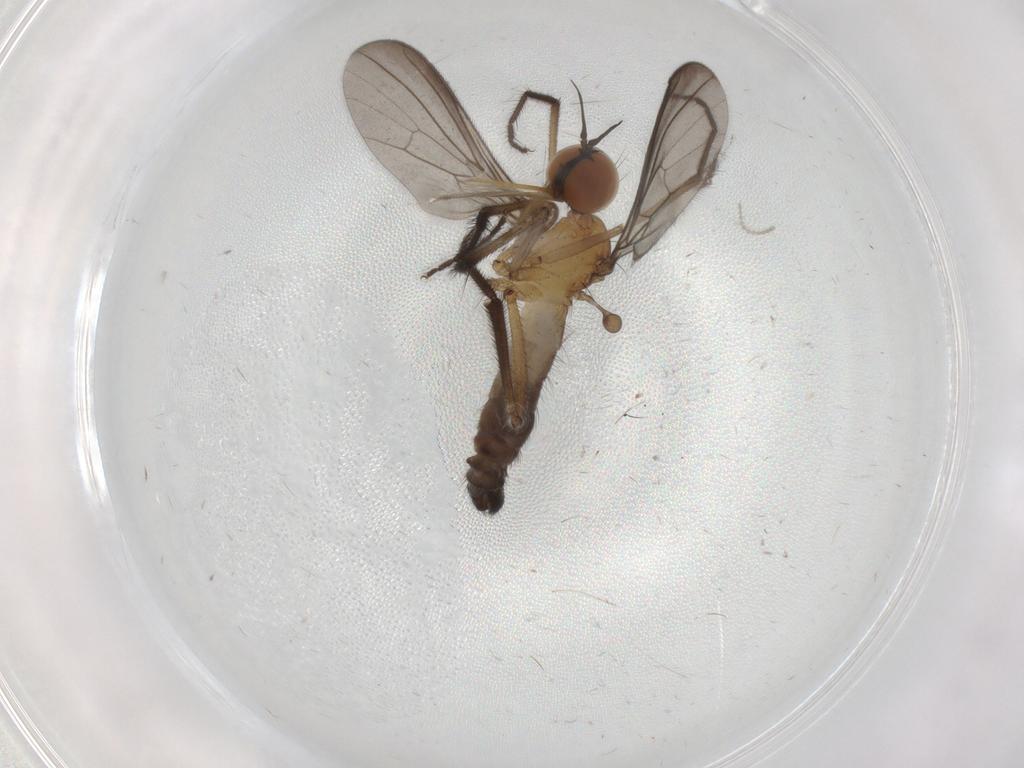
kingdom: Animalia
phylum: Arthropoda
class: Insecta
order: Diptera
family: Empididae
